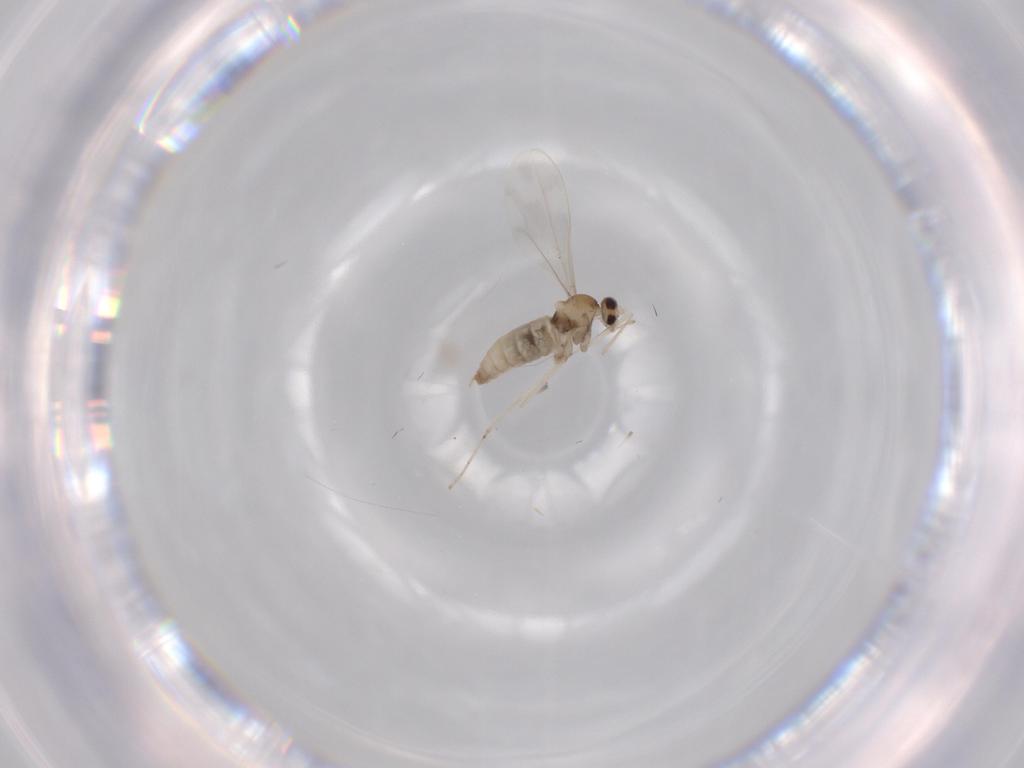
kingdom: Animalia
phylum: Arthropoda
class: Insecta
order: Diptera
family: Cecidomyiidae
